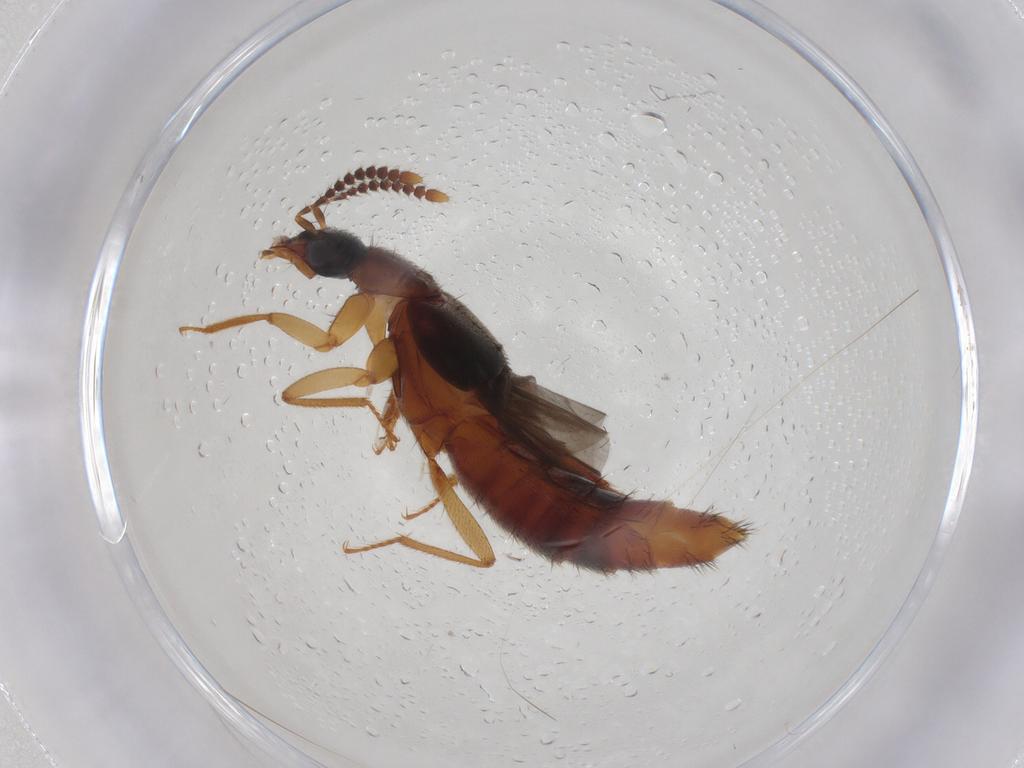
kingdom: Animalia
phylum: Arthropoda
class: Insecta
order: Coleoptera
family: Staphylinidae
